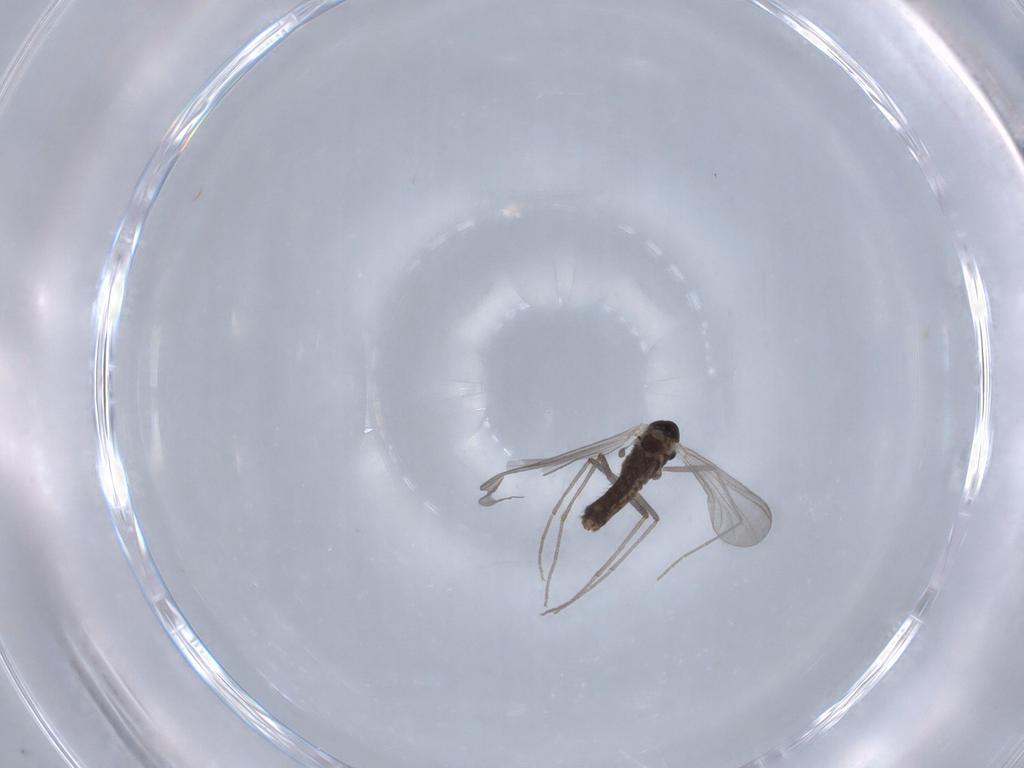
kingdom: Animalia
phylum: Arthropoda
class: Insecta
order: Diptera
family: Chironomidae
